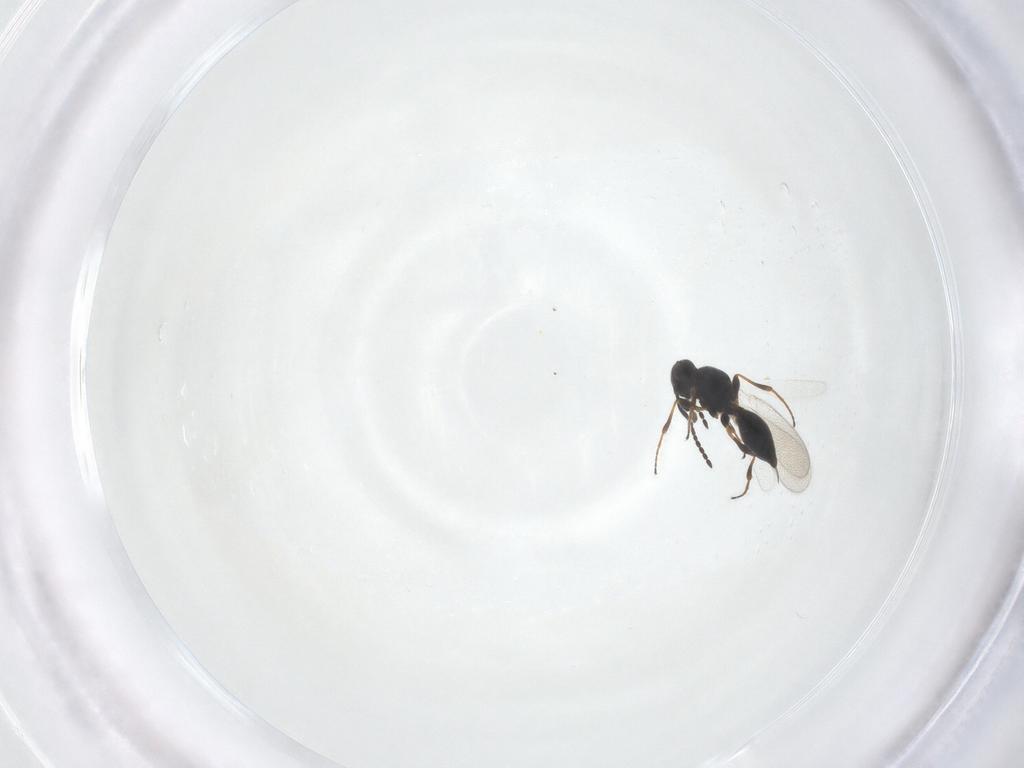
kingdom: Animalia
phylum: Arthropoda
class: Insecta
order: Hymenoptera
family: Platygastridae
